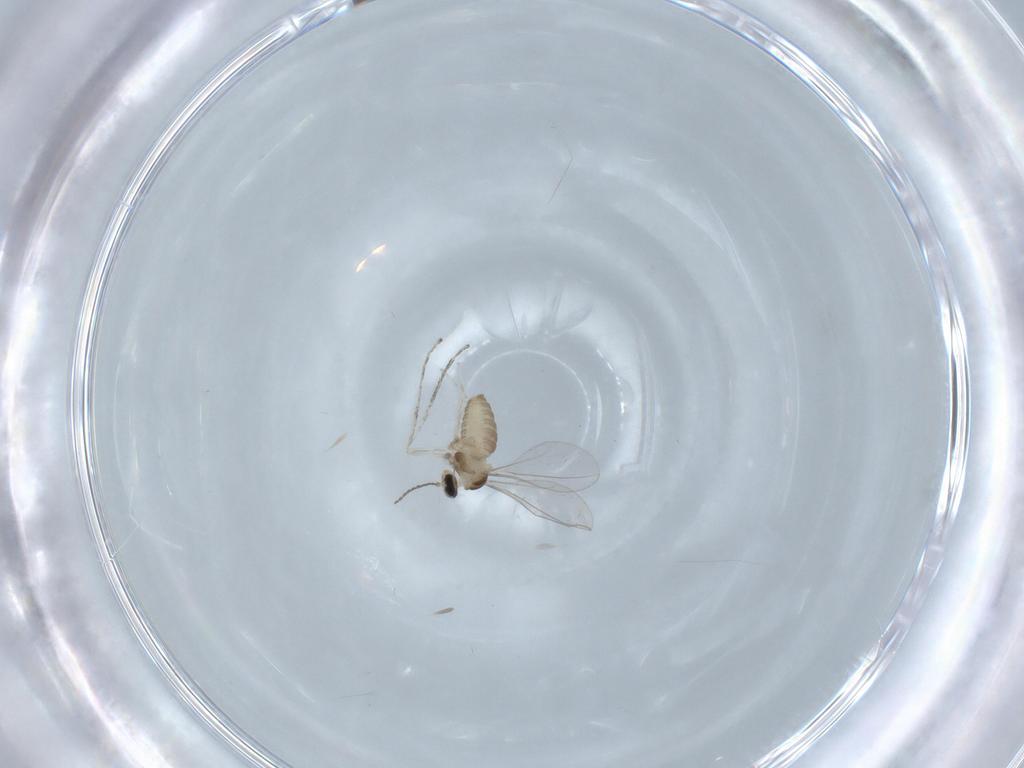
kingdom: Animalia
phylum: Arthropoda
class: Insecta
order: Diptera
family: Cecidomyiidae
